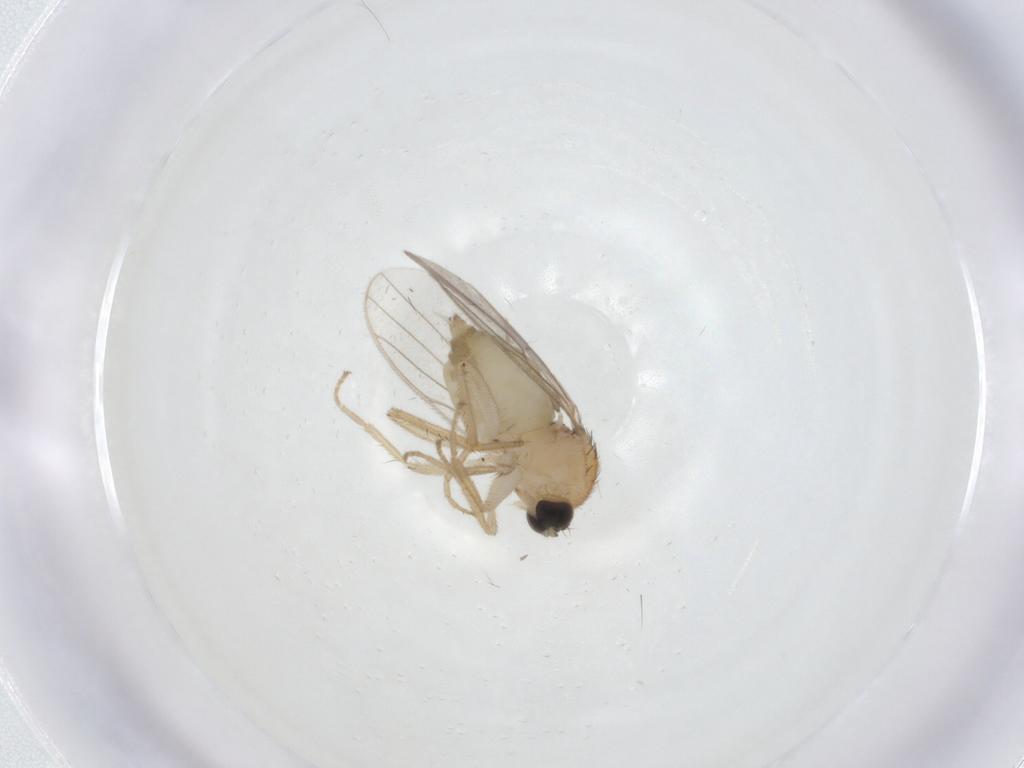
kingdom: Animalia
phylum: Arthropoda
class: Insecta
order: Diptera
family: Hybotidae
